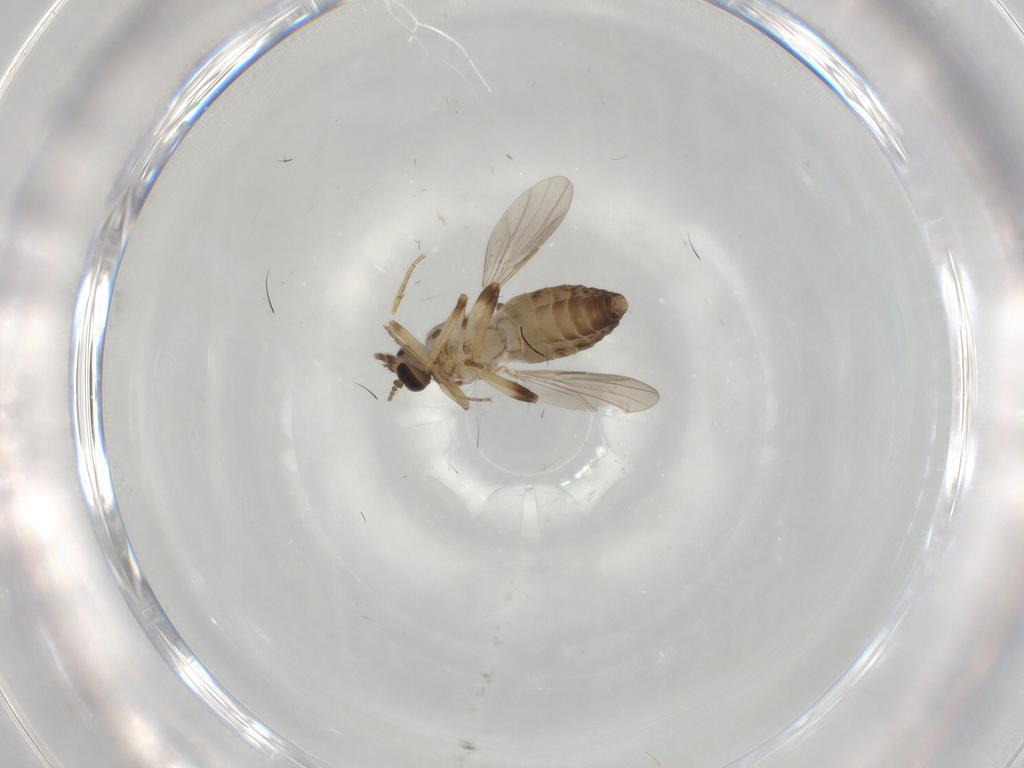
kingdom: Animalia
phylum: Arthropoda
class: Insecta
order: Diptera
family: Ceratopogonidae
